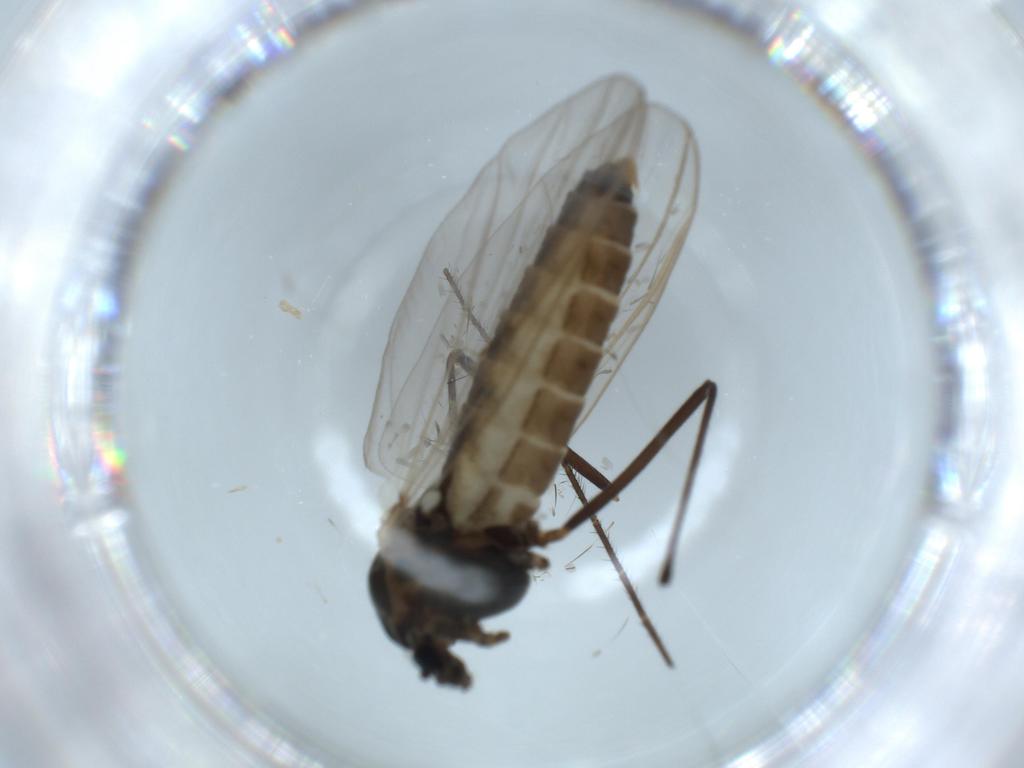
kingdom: Animalia
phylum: Arthropoda
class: Insecta
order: Diptera
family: Chironomidae
